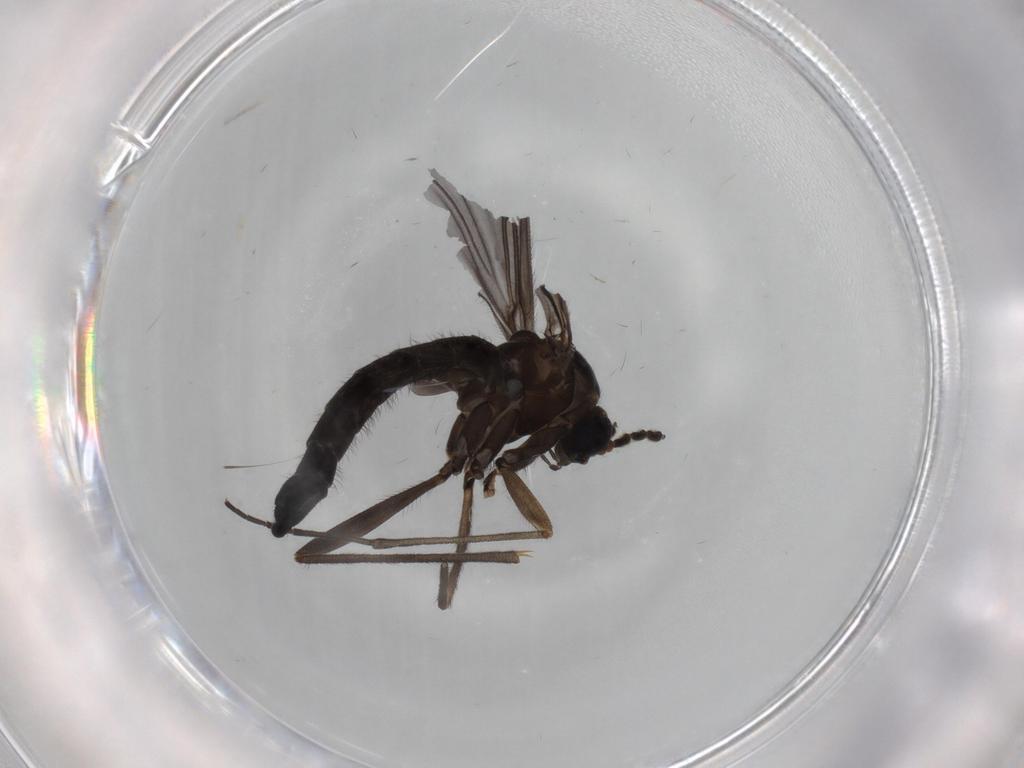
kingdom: Animalia
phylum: Arthropoda
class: Insecta
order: Diptera
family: Sciaridae
